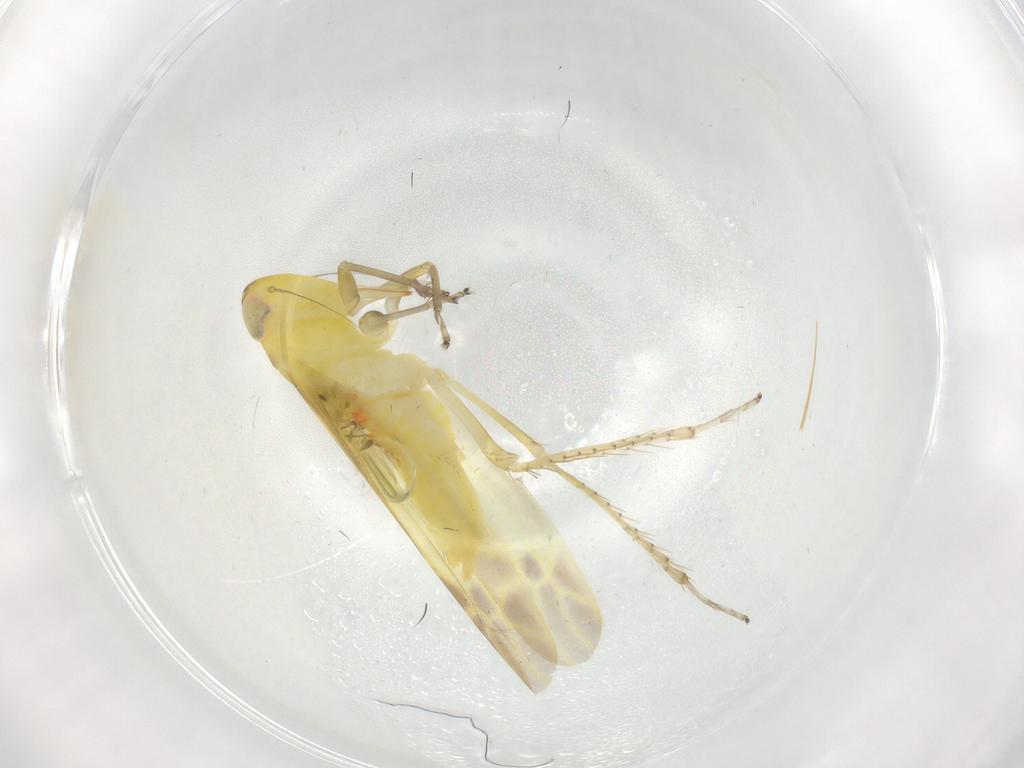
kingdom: Animalia
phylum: Arthropoda
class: Insecta
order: Hemiptera
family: Cicadellidae
